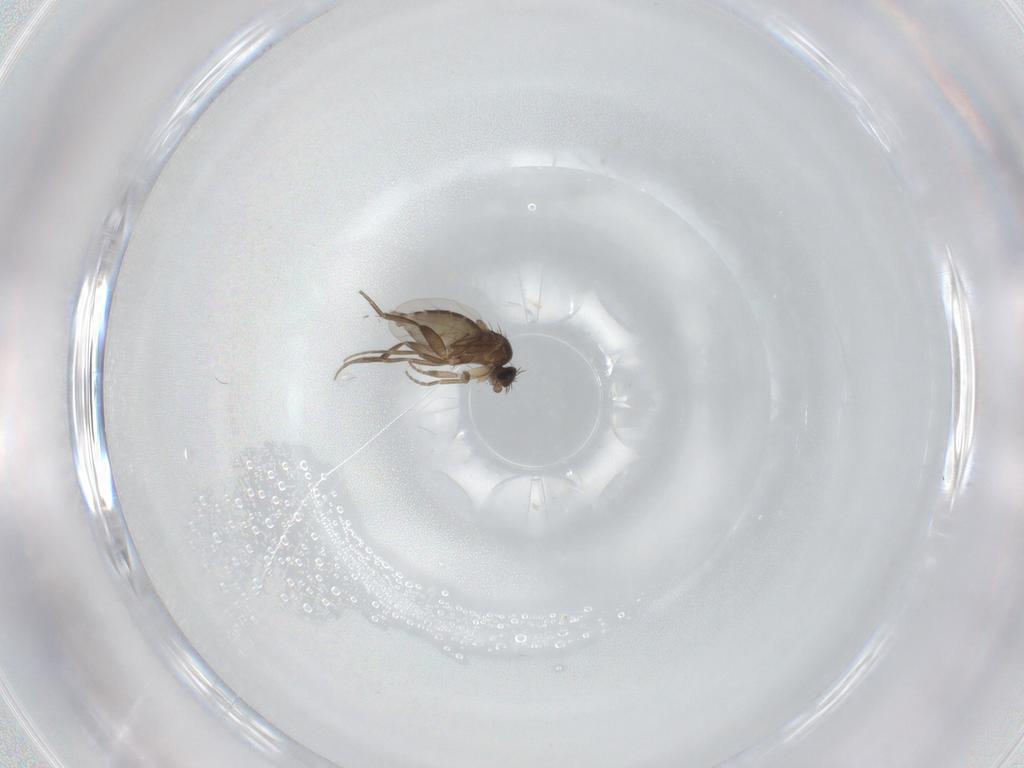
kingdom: Animalia
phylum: Arthropoda
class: Insecta
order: Diptera
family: Phoridae
